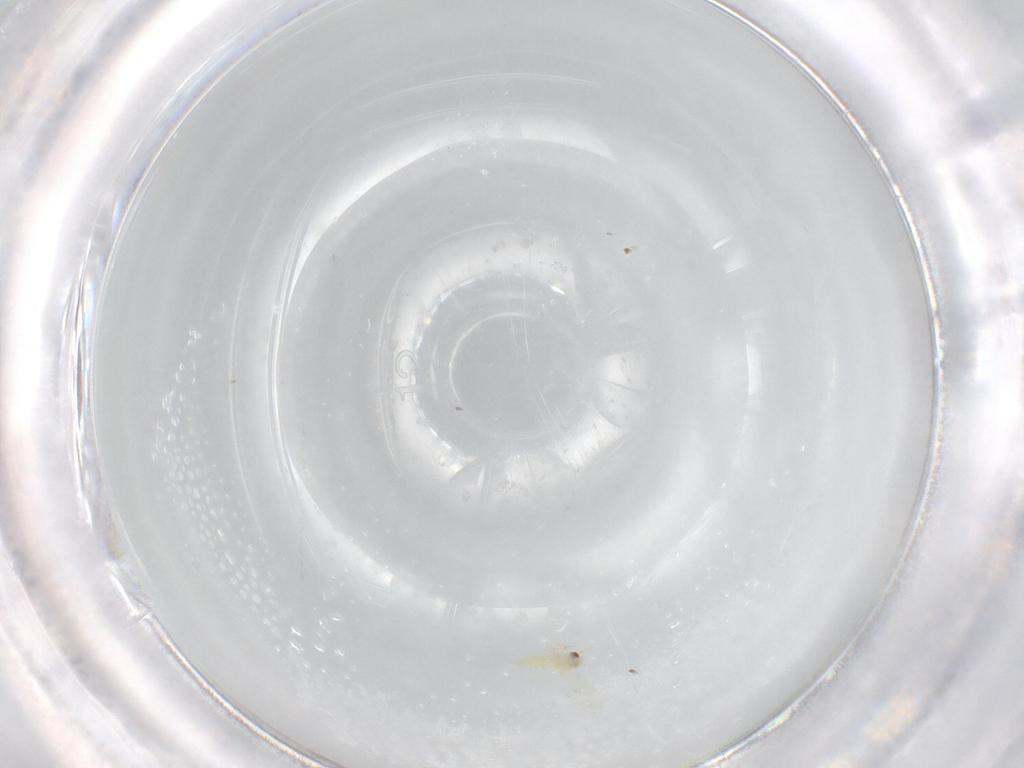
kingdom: Animalia
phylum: Arthropoda
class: Insecta
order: Hemiptera
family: Aleyrodidae
